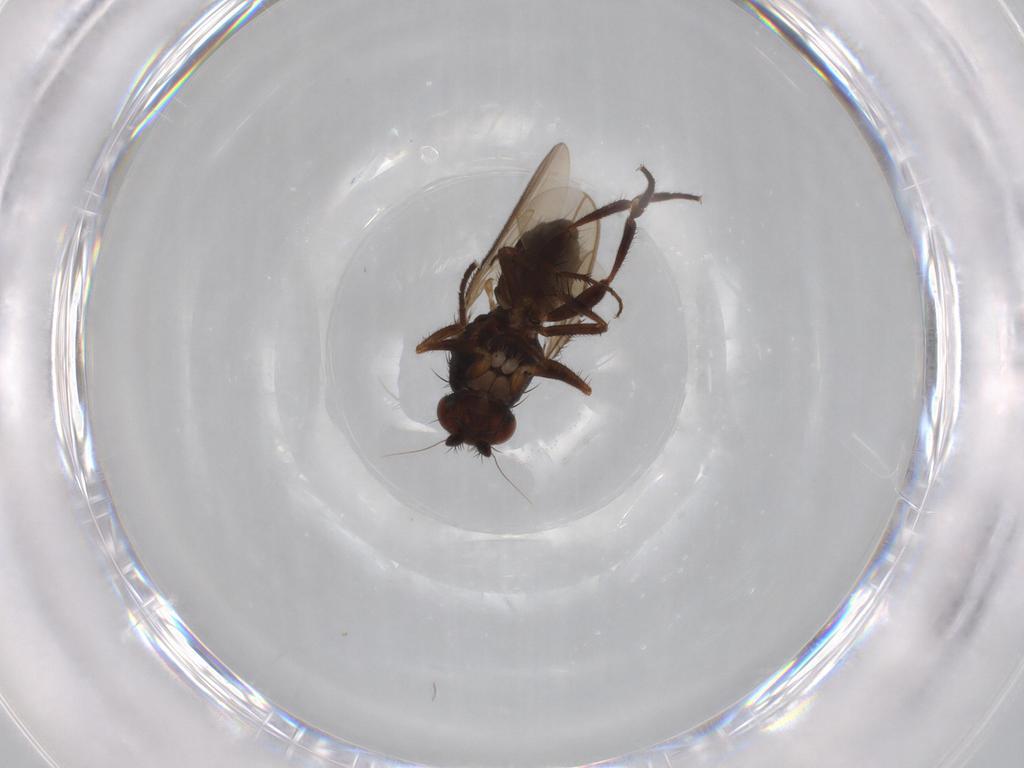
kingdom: Animalia
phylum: Arthropoda
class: Insecta
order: Diptera
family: Sphaeroceridae
